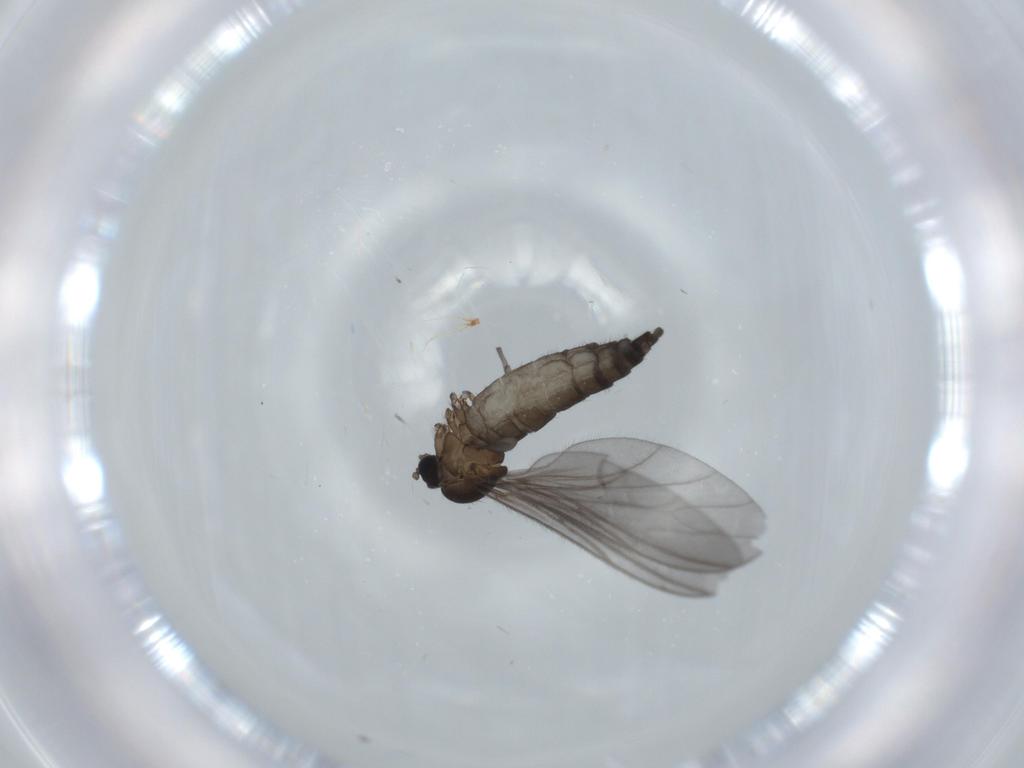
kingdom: Animalia
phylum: Arthropoda
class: Insecta
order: Diptera
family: Sciaridae
